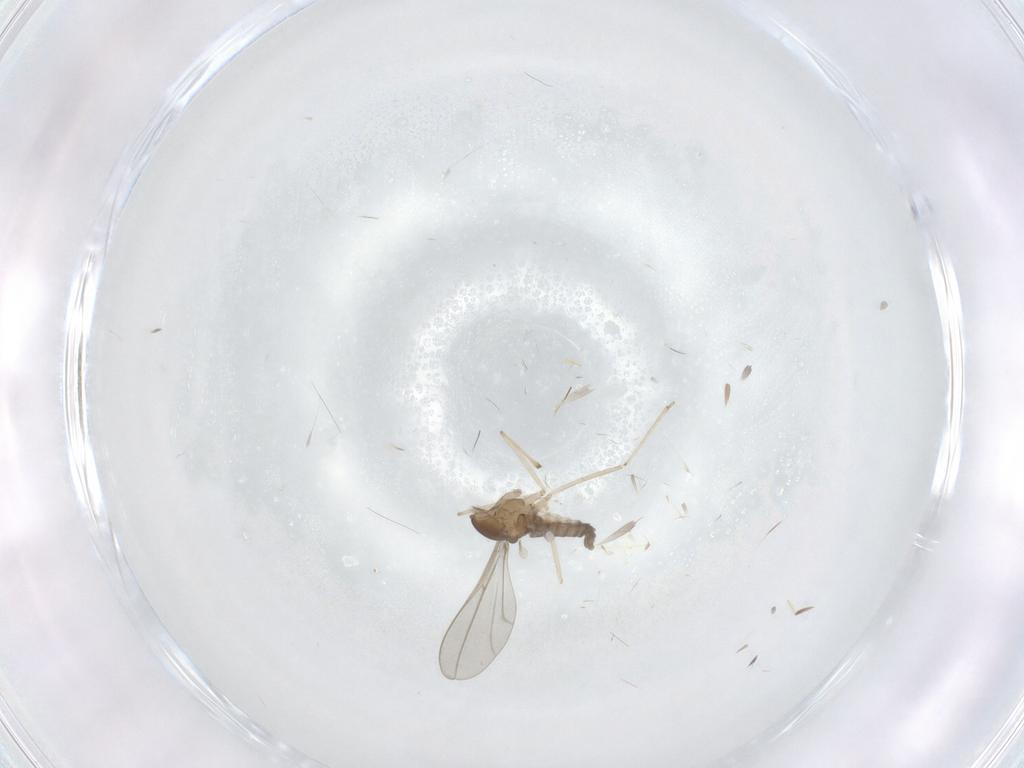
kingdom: Animalia
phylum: Arthropoda
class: Insecta
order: Diptera
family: Cecidomyiidae
